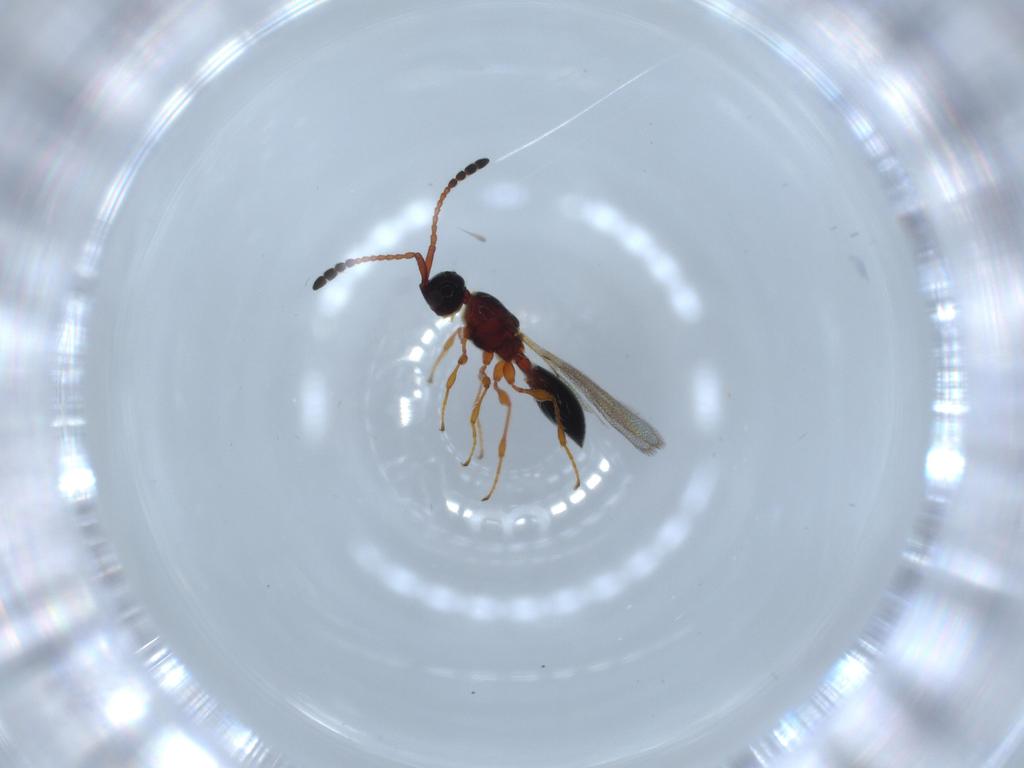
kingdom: Animalia
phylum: Arthropoda
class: Insecta
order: Hymenoptera
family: Diapriidae
